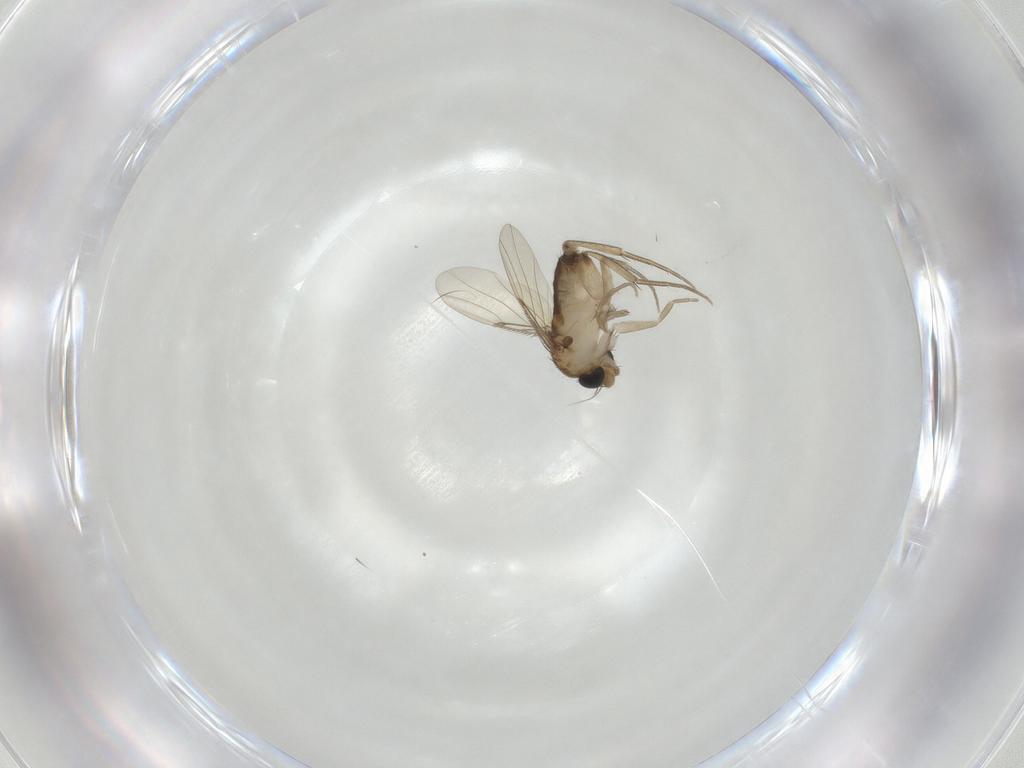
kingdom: Animalia
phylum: Arthropoda
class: Insecta
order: Diptera
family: Phoridae
